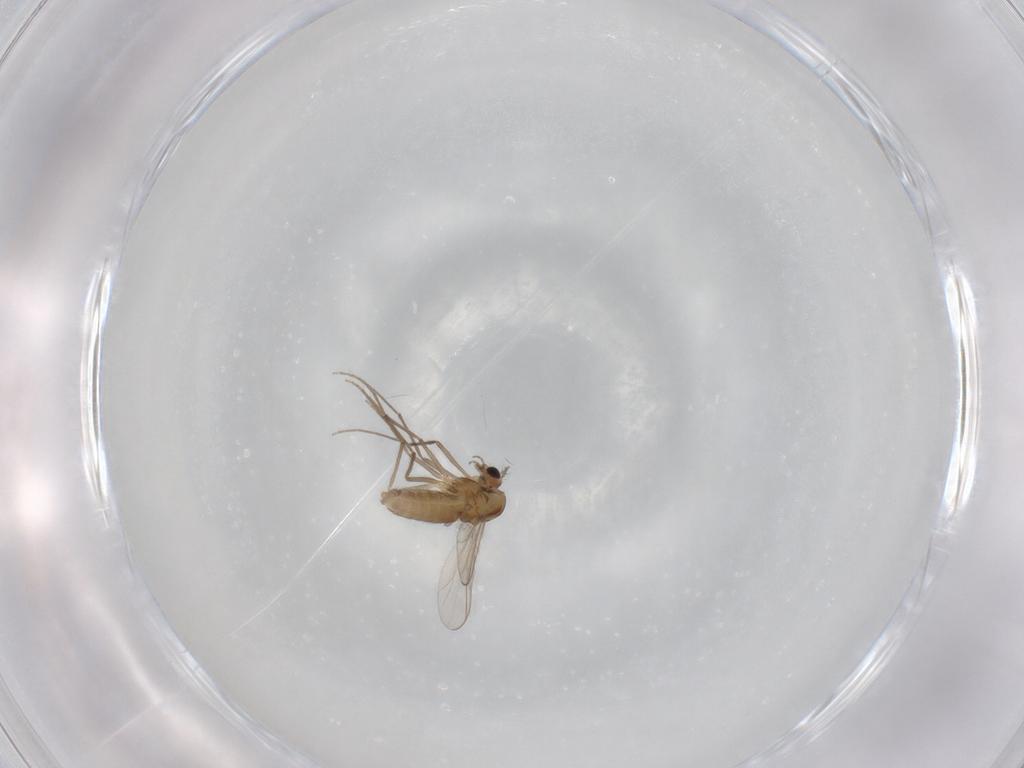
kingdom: Animalia
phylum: Arthropoda
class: Insecta
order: Diptera
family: Chironomidae
